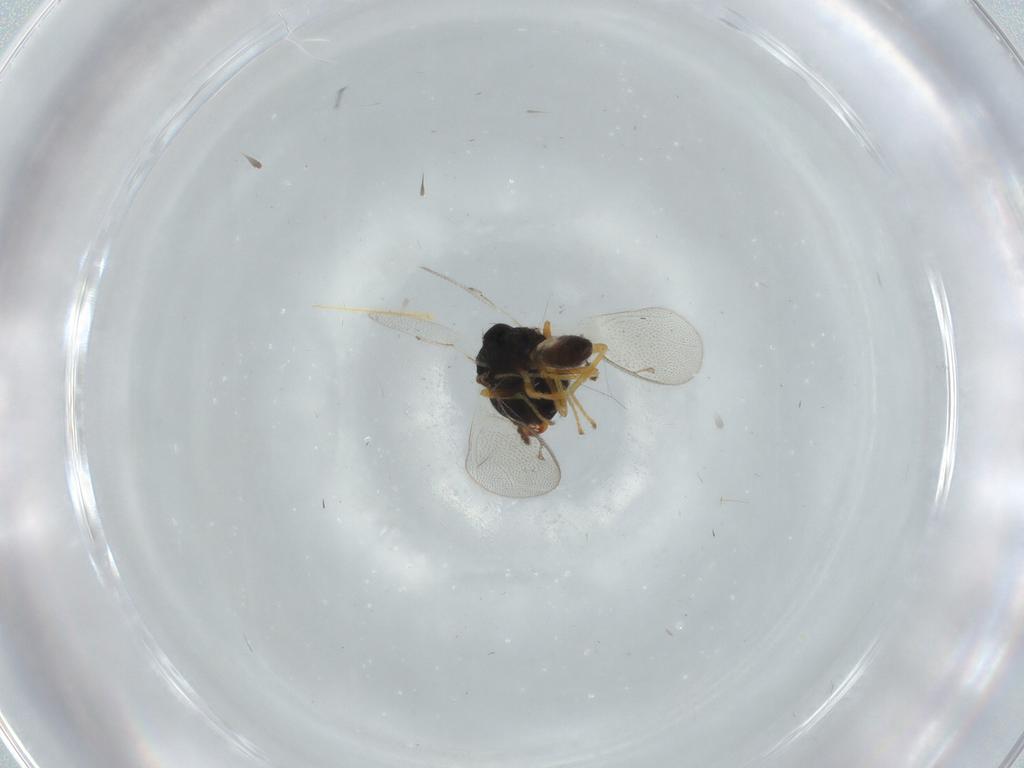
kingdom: Animalia
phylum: Arthropoda
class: Insecta
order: Hymenoptera
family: Pteromalidae
